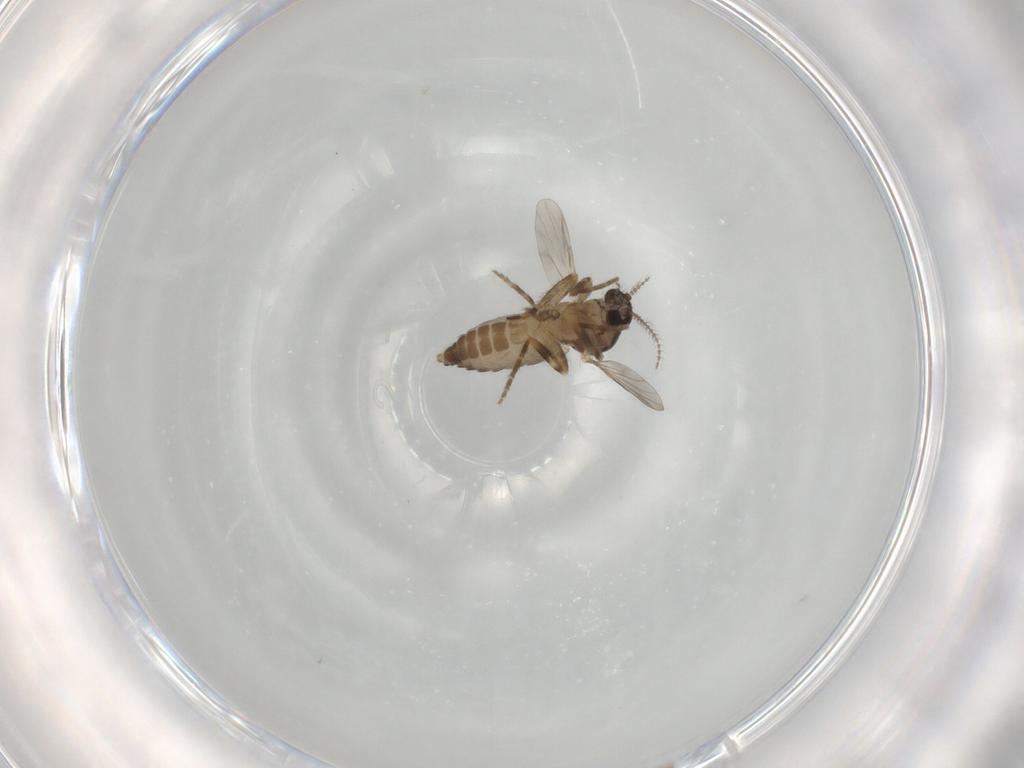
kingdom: Animalia
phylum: Arthropoda
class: Insecta
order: Diptera
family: Ceratopogonidae
